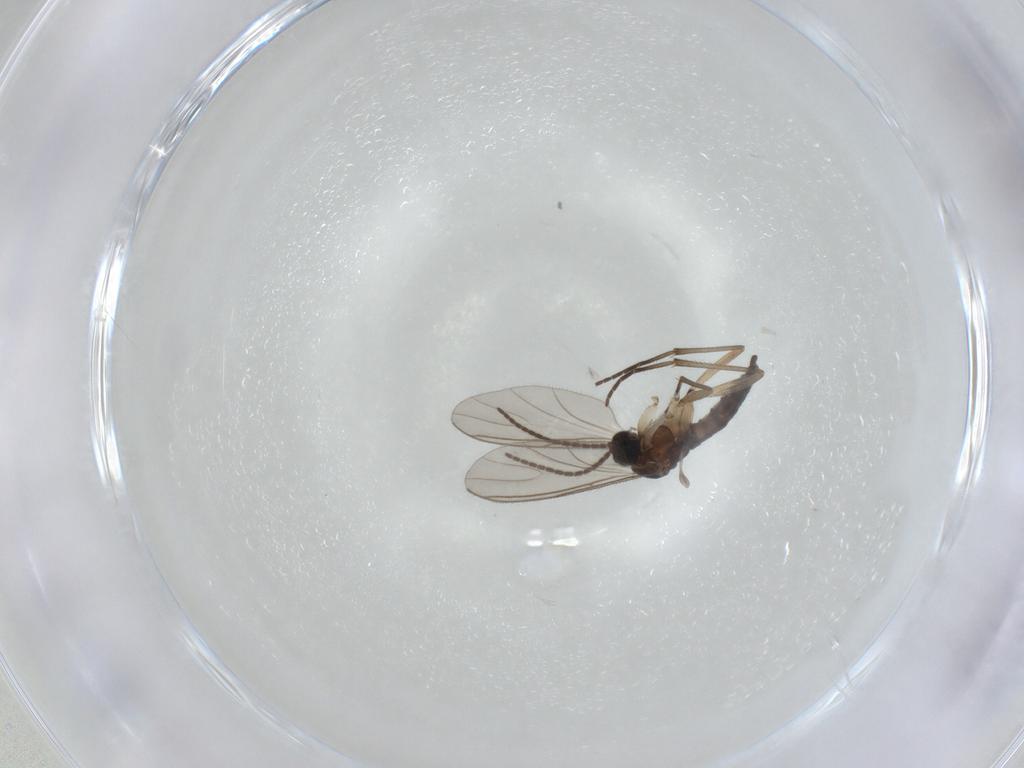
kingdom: Animalia
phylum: Arthropoda
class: Insecta
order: Diptera
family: Sciaridae
